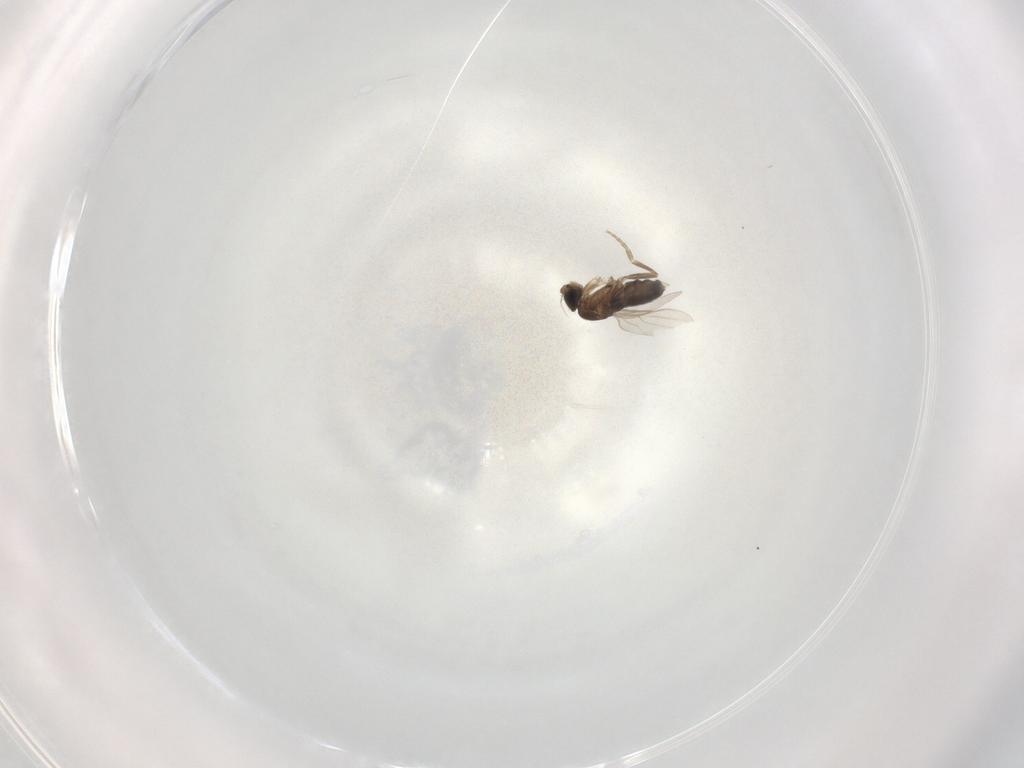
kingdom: Animalia
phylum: Arthropoda
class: Insecta
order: Diptera
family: Phoridae
